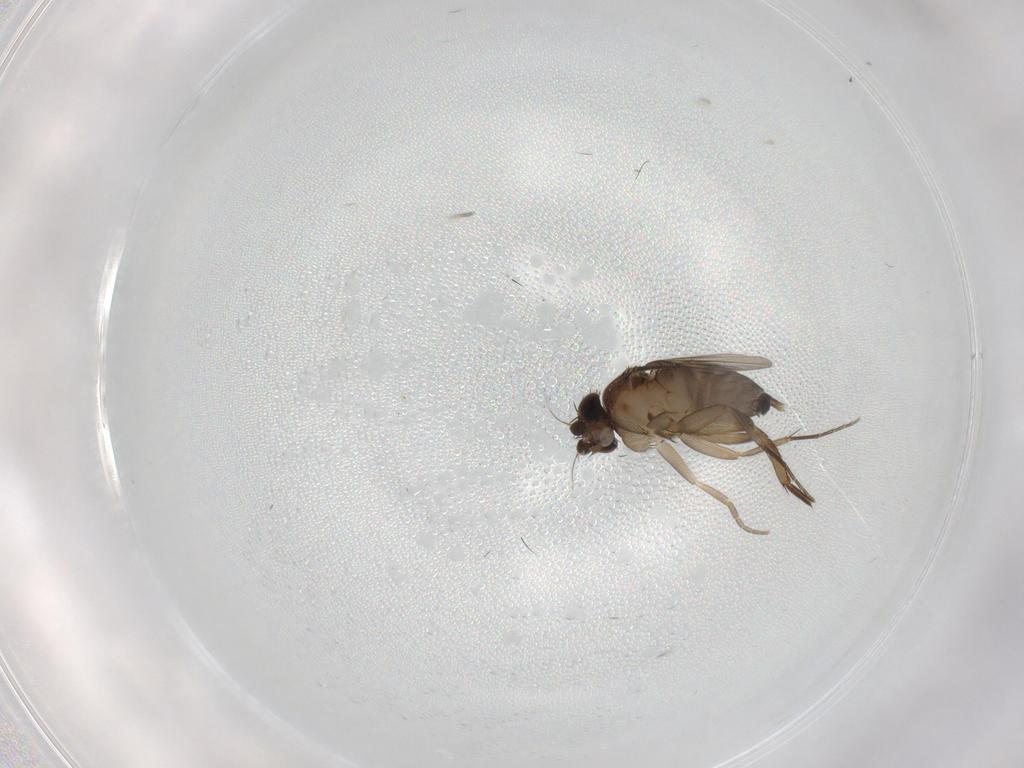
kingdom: Animalia
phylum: Arthropoda
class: Insecta
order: Diptera
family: Phoridae
